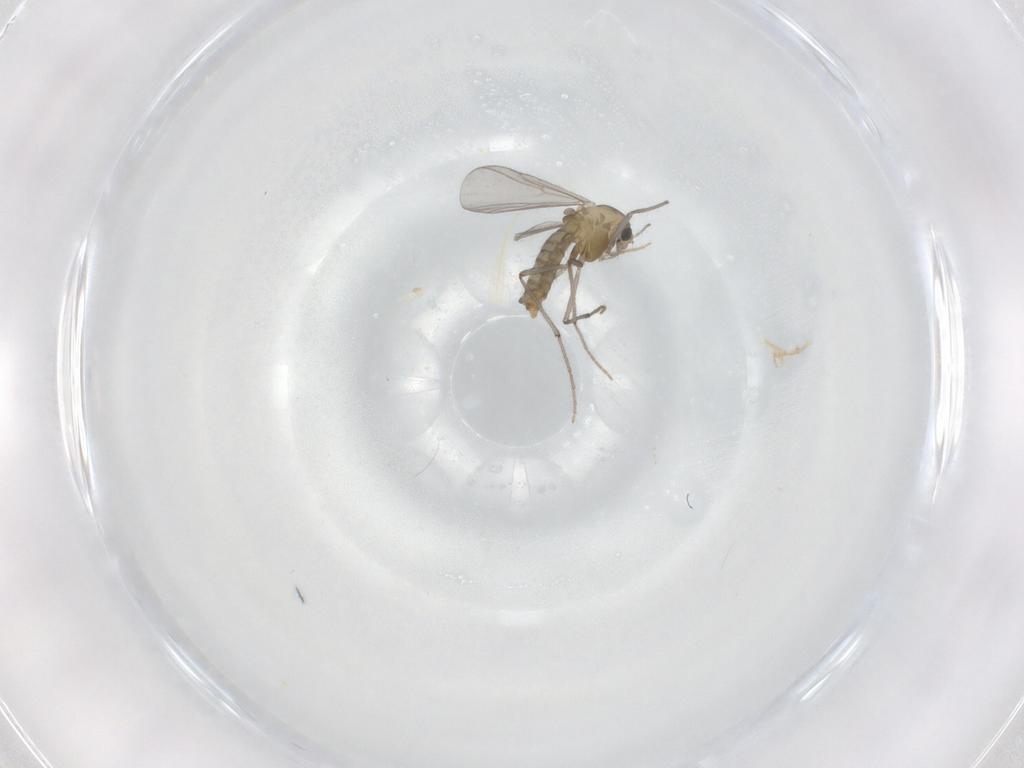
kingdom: Animalia
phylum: Arthropoda
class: Insecta
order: Diptera
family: Chironomidae
